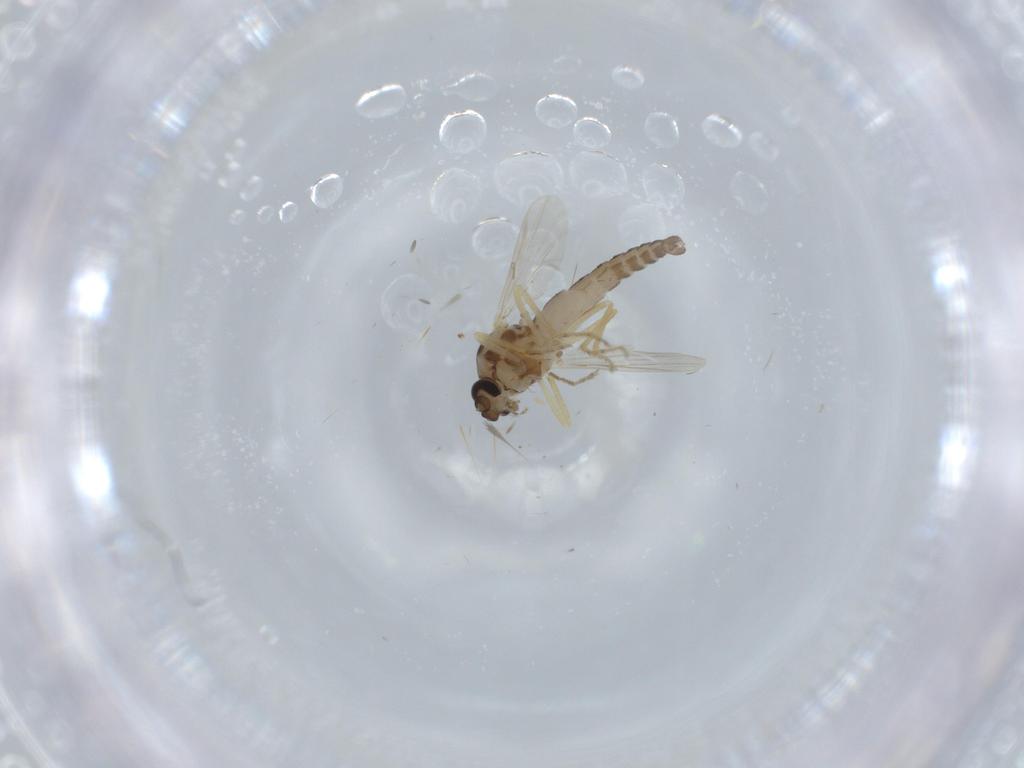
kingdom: Animalia
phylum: Arthropoda
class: Insecta
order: Diptera
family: Ceratopogonidae
